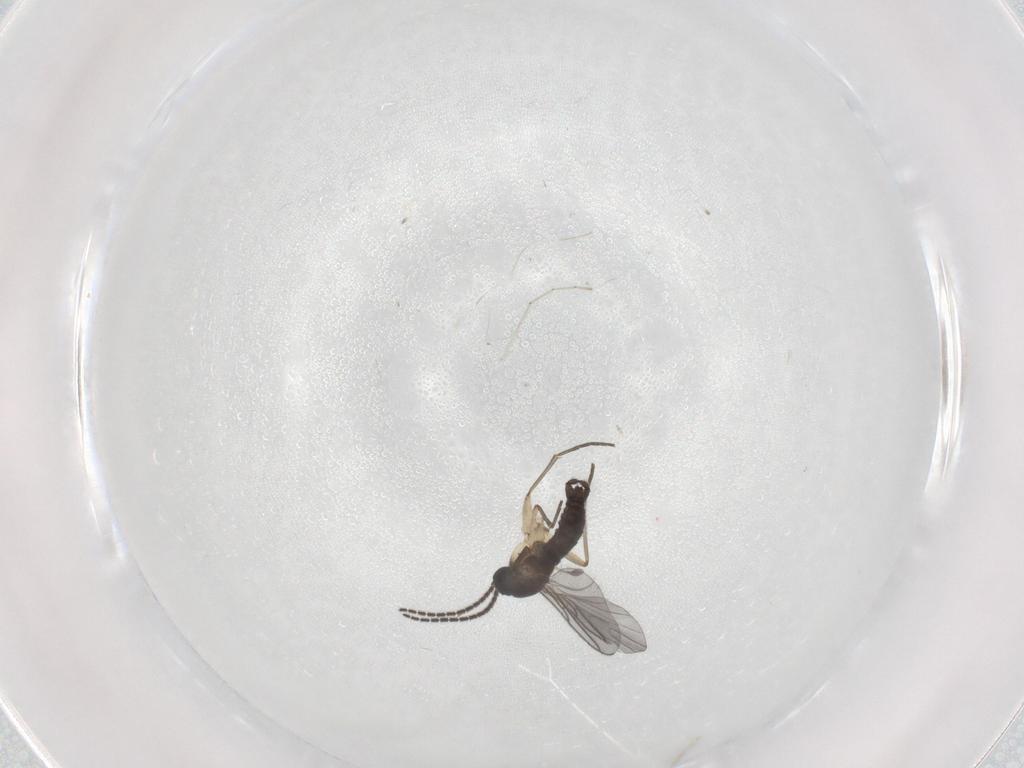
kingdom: Animalia
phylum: Arthropoda
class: Insecta
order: Diptera
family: Sciaridae
